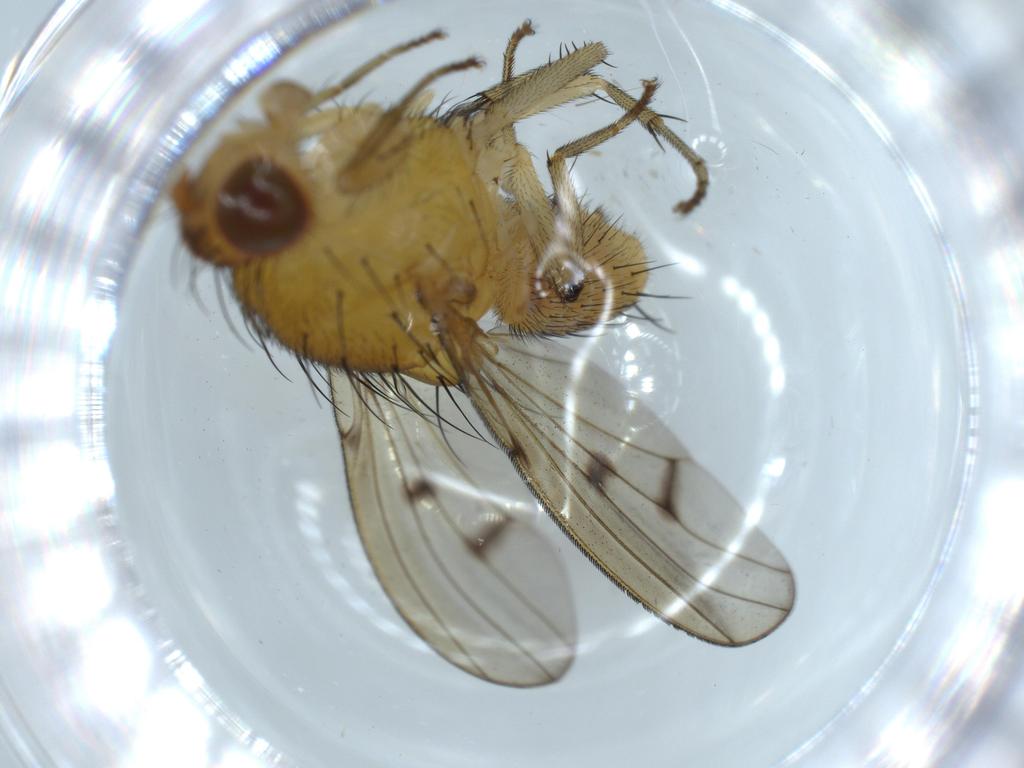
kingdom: Animalia
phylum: Arthropoda
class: Insecta
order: Diptera
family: Sciaridae
